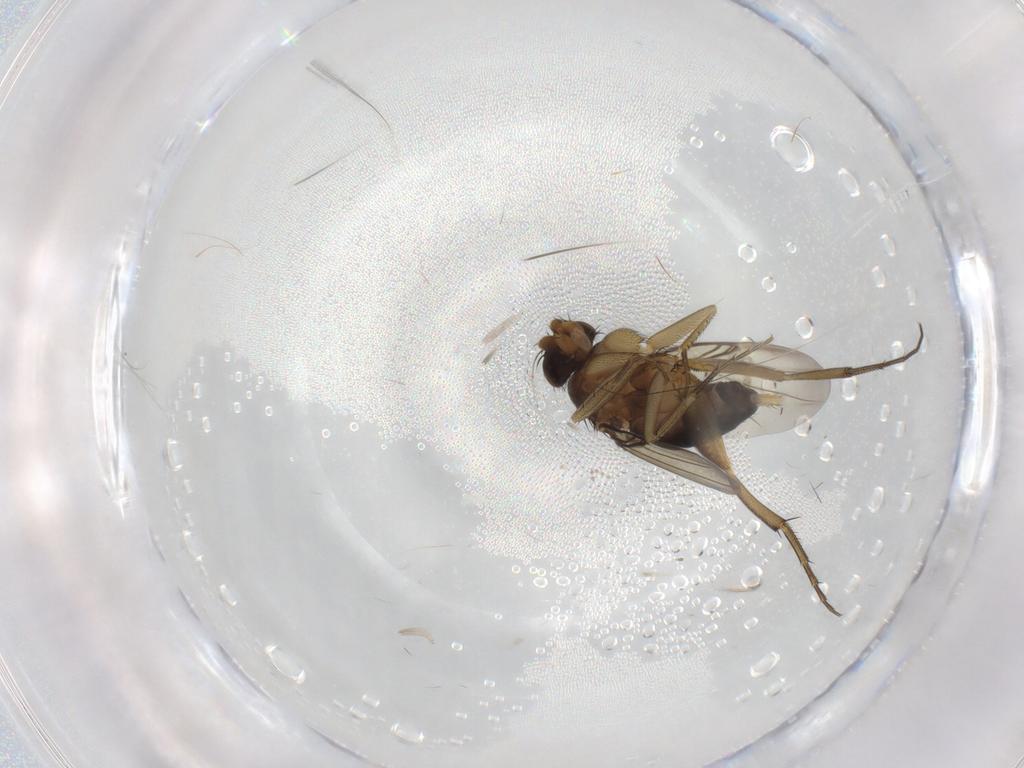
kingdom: Animalia
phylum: Arthropoda
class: Insecta
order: Diptera
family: Phoridae
